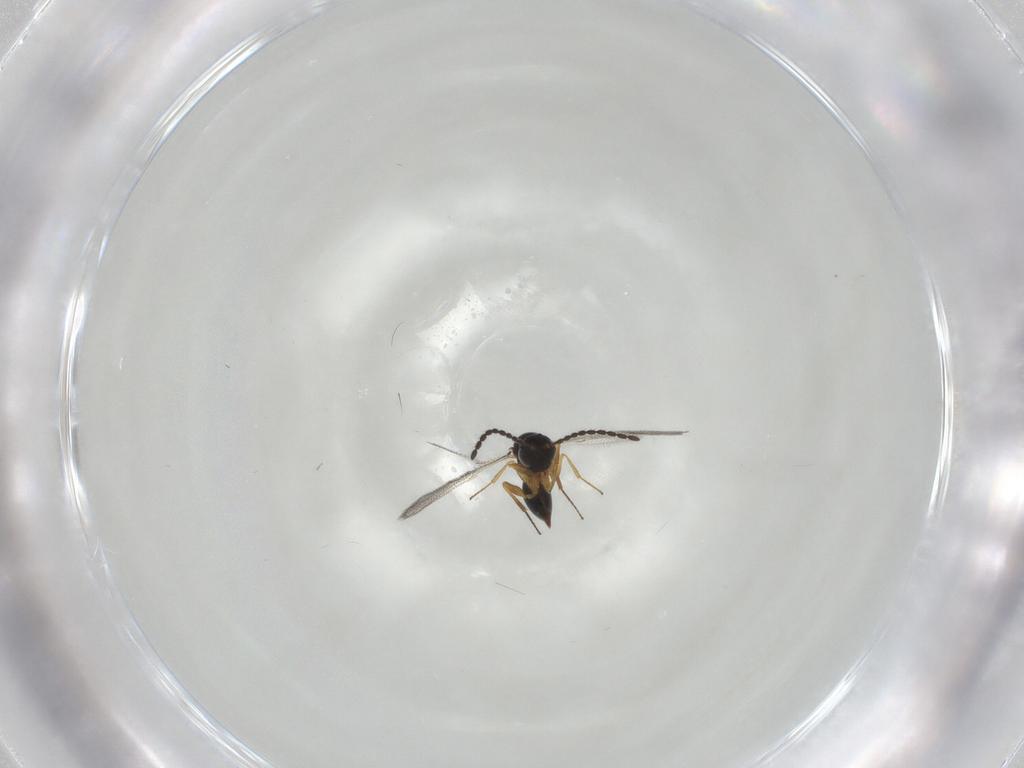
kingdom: Animalia
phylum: Arthropoda
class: Insecta
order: Hymenoptera
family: Figitidae
